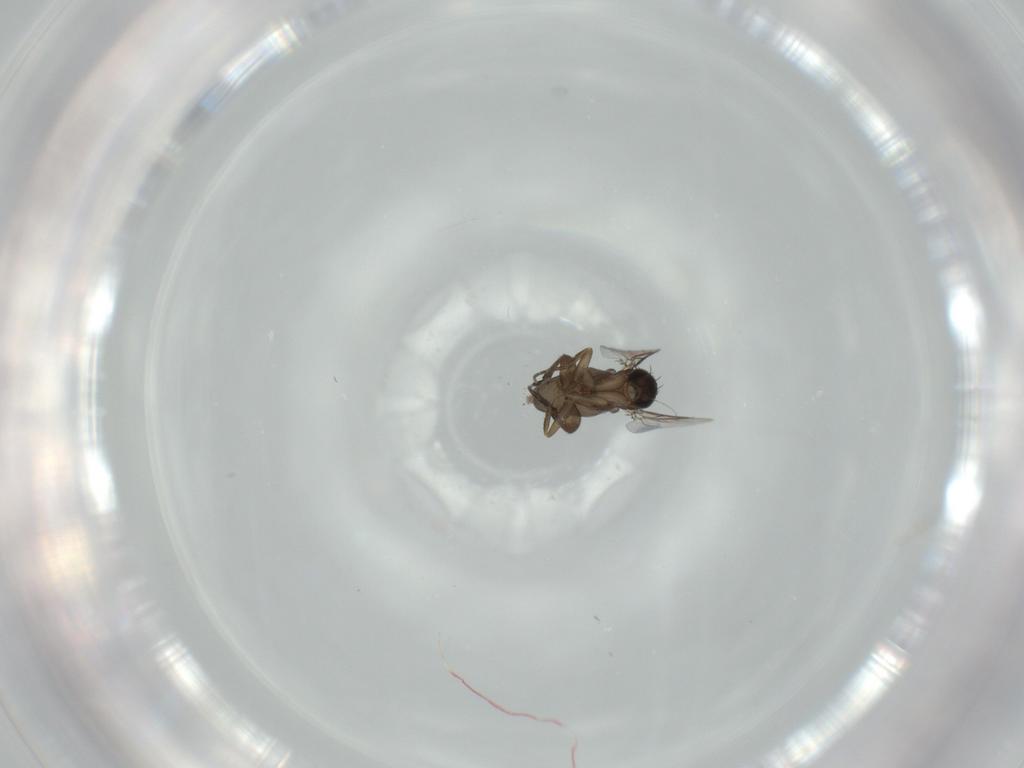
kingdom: Animalia
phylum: Arthropoda
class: Insecta
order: Diptera
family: Phoridae
